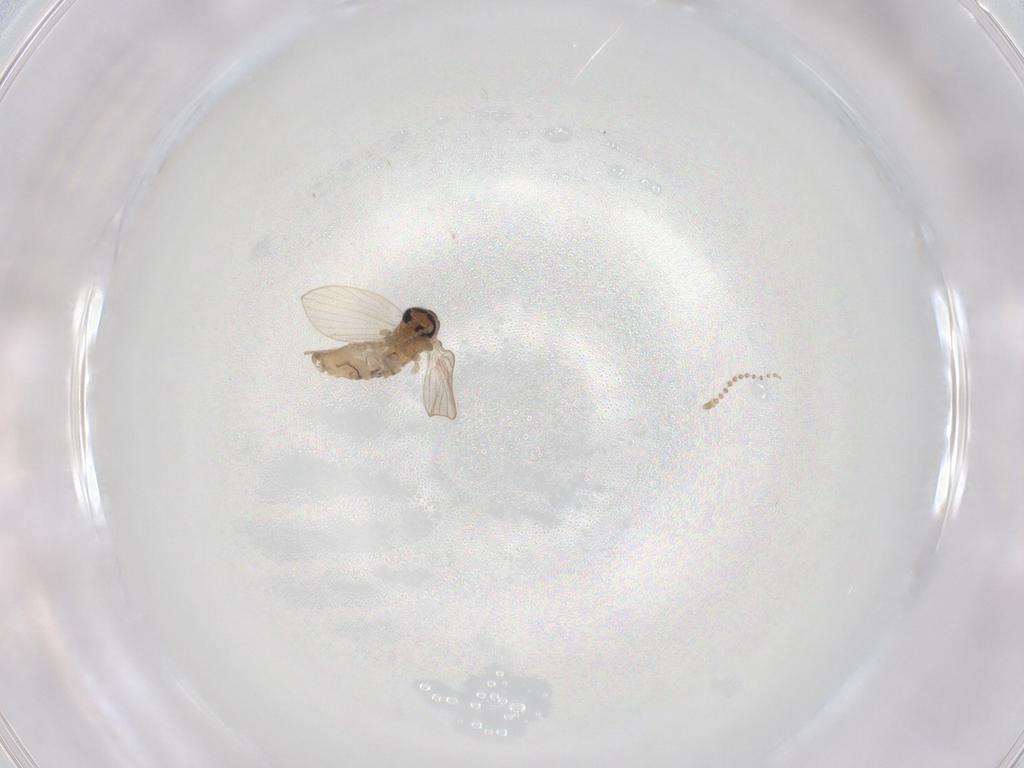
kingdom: Animalia
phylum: Arthropoda
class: Insecta
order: Diptera
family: Psychodidae
